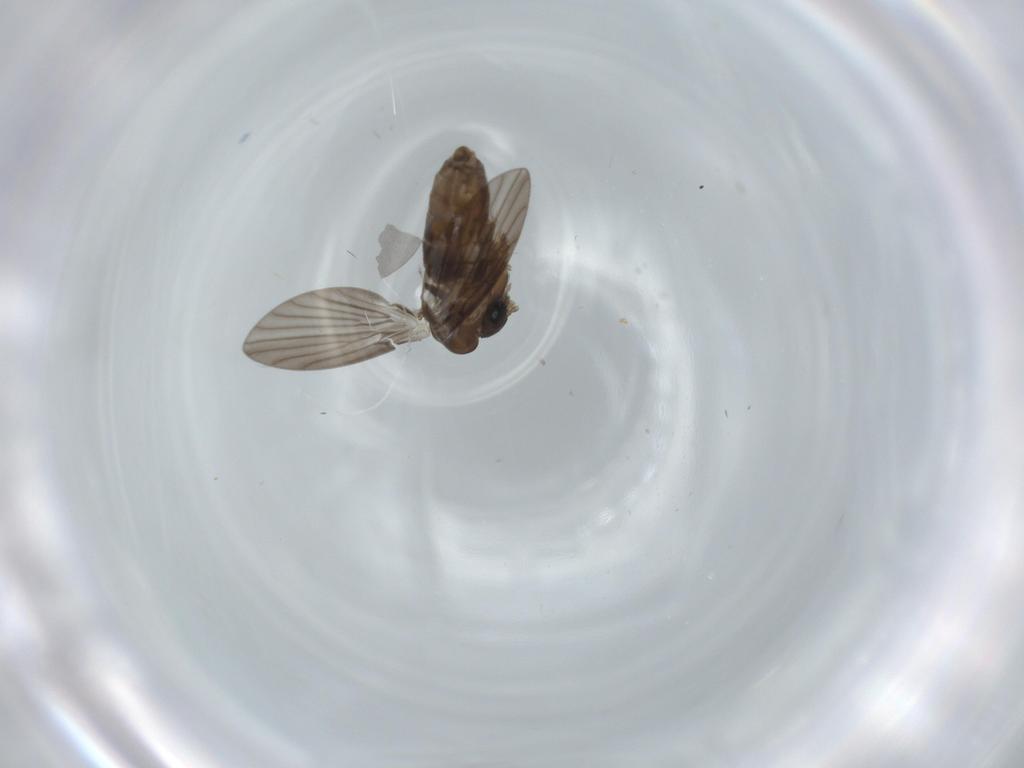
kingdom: Animalia
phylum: Arthropoda
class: Insecta
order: Diptera
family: Psychodidae
